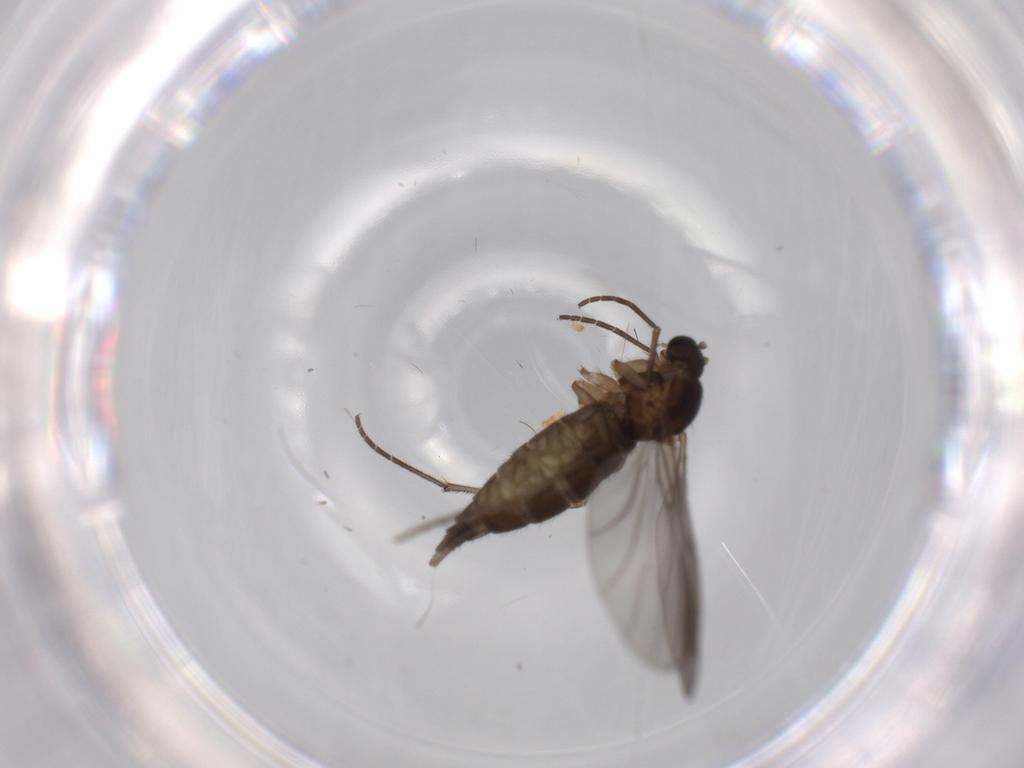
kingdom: Animalia
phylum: Arthropoda
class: Insecta
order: Diptera
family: Sciaridae
